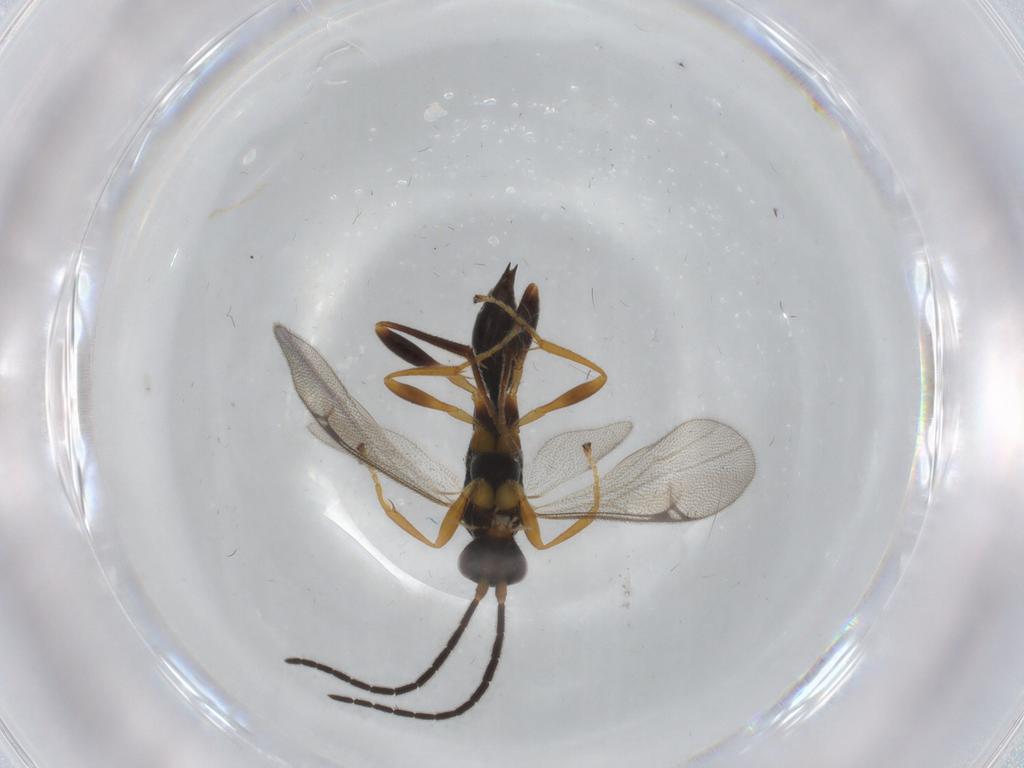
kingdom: Animalia
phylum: Arthropoda
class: Insecta
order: Hymenoptera
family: Proctotrupidae
